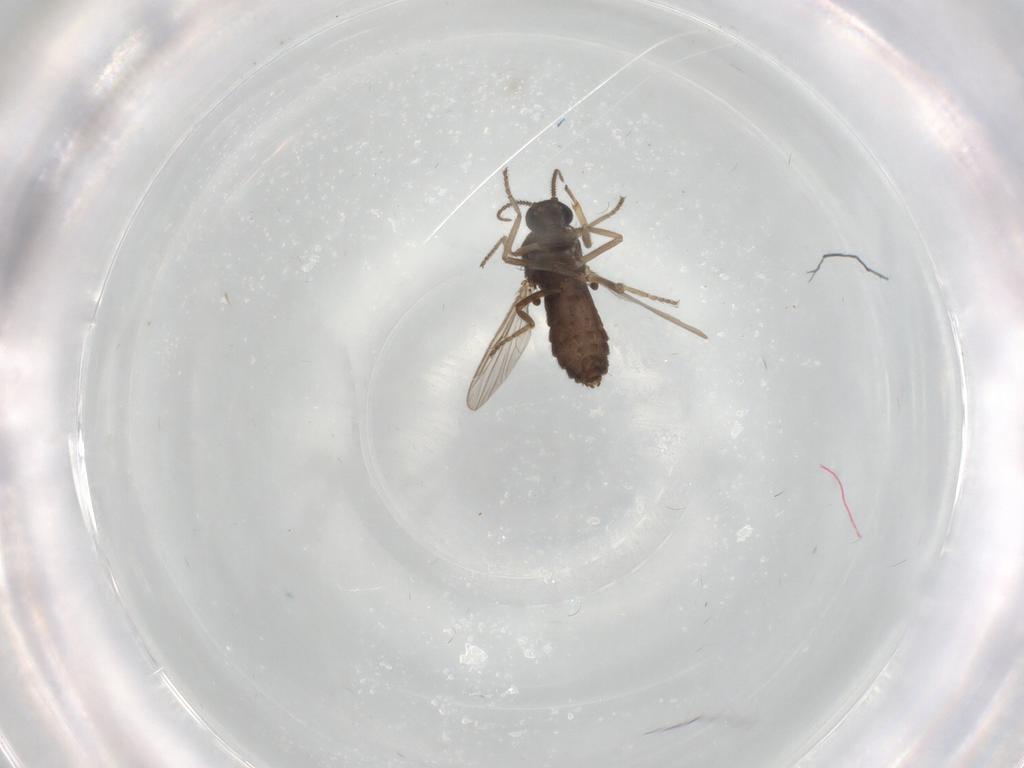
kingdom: Animalia
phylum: Arthropoda
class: Insecta
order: Diptera
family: Ceratopogonidae
